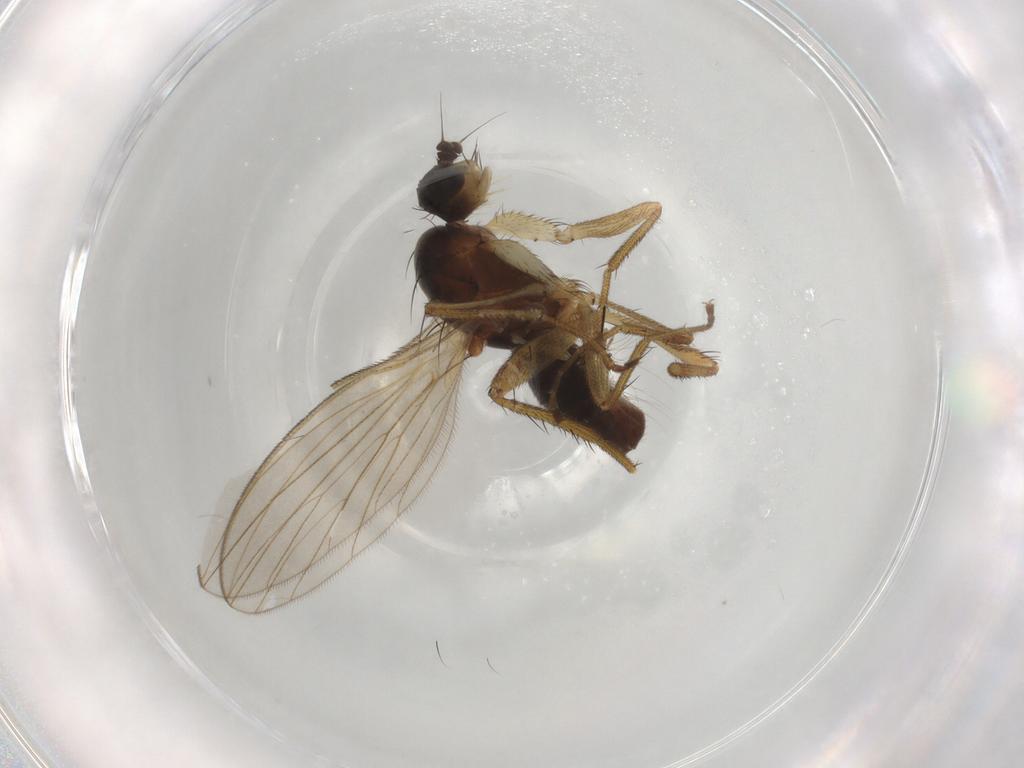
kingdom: Animalia
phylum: Arthropoda
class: Insecta
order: Diptera
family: Lonchopteridae
